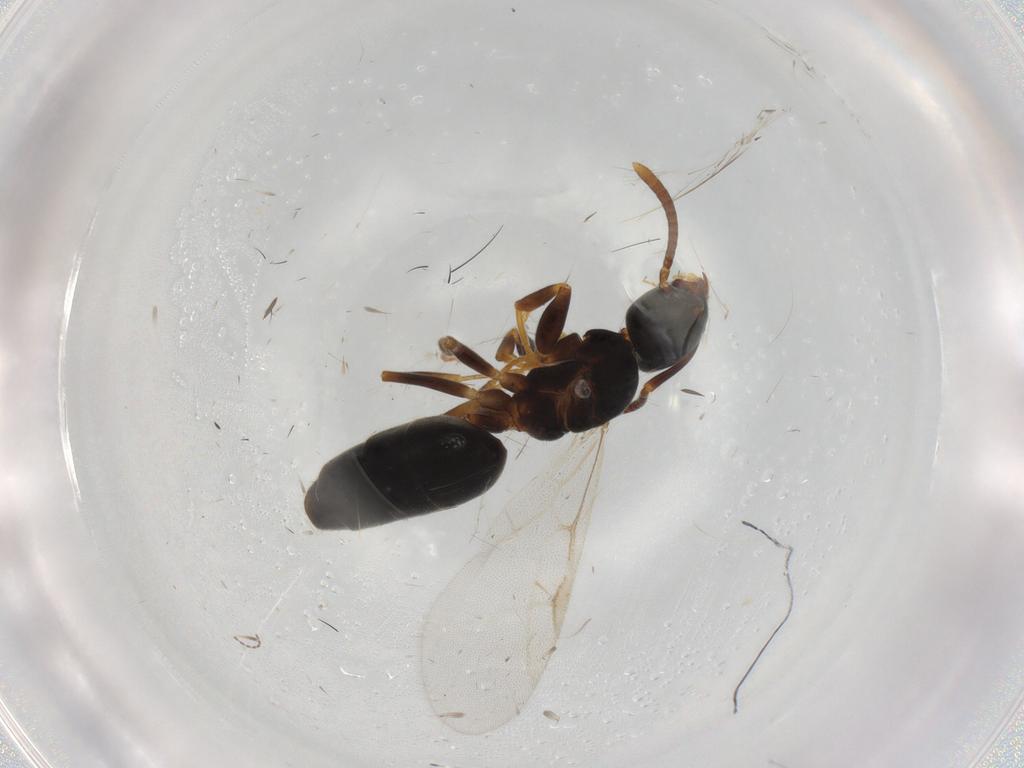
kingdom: Animalia
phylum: Arthropoda
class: Insecta
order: Hymenoptera
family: Formicidae
